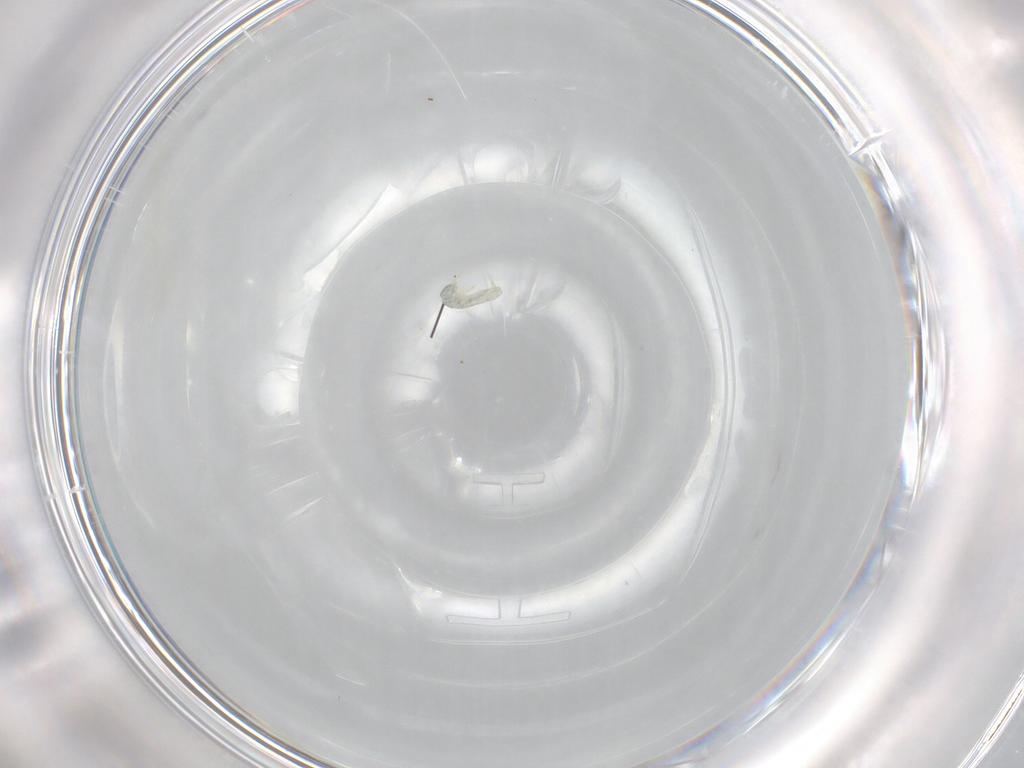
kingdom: Animalia
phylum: Arthropoda
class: Collembola
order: Entomobryomorpha
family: Isotomidae
